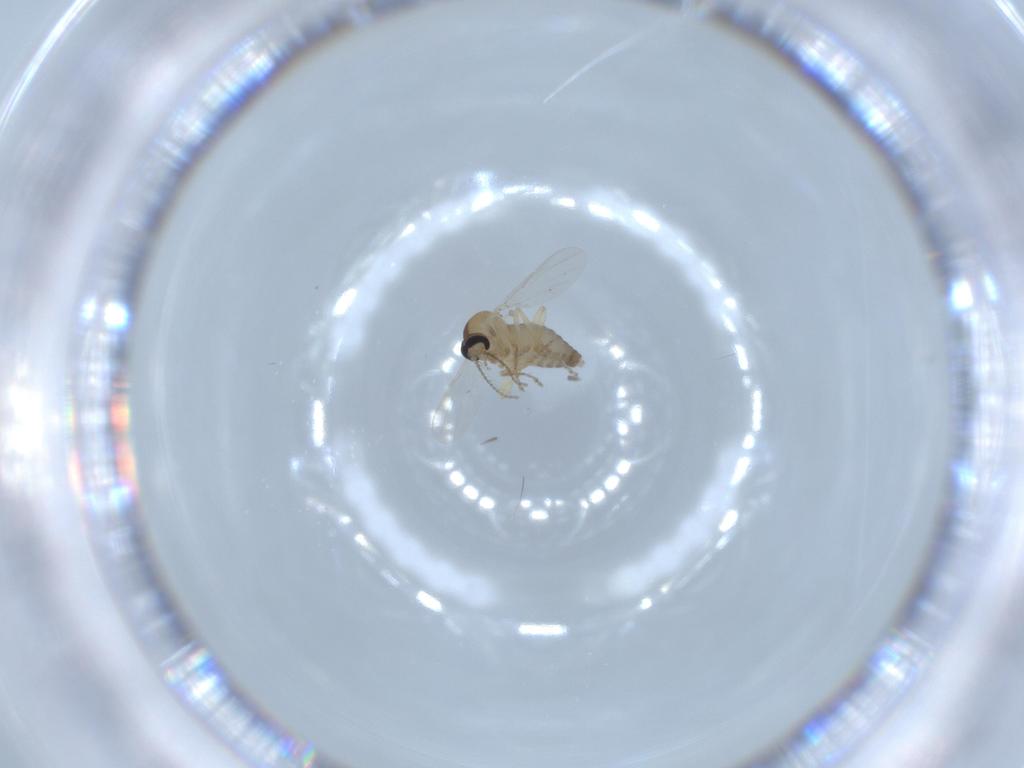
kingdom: Animalia
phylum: Arthropoda
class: Insecta
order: Diptera
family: Ceratopogonidae
